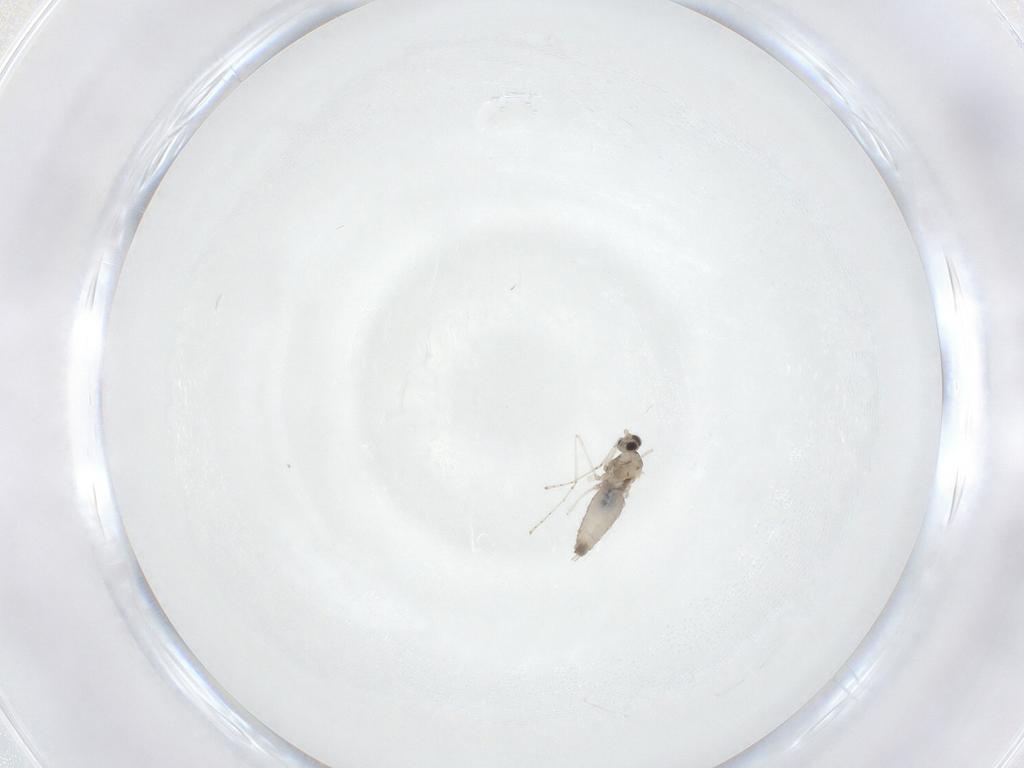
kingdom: Animalia
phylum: Arthropoda
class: Insecta
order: Diptera
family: Cecidomyiidae
